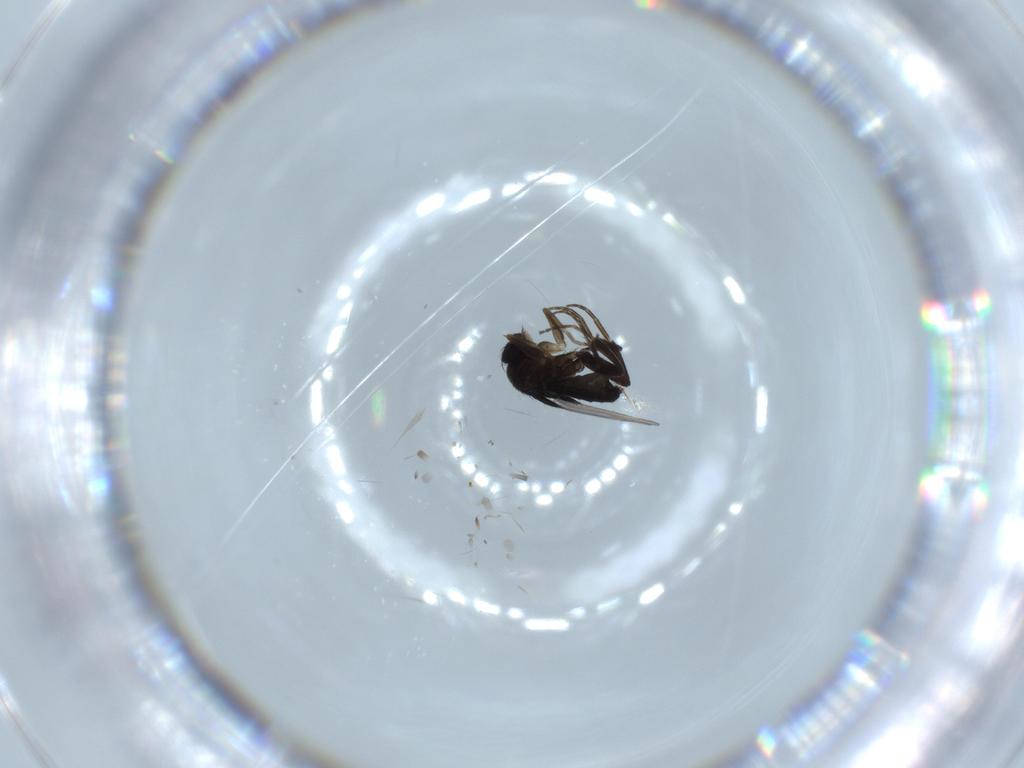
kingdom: Animalia
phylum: Arthropoda
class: Insecta
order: Diptera
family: Phoridae
